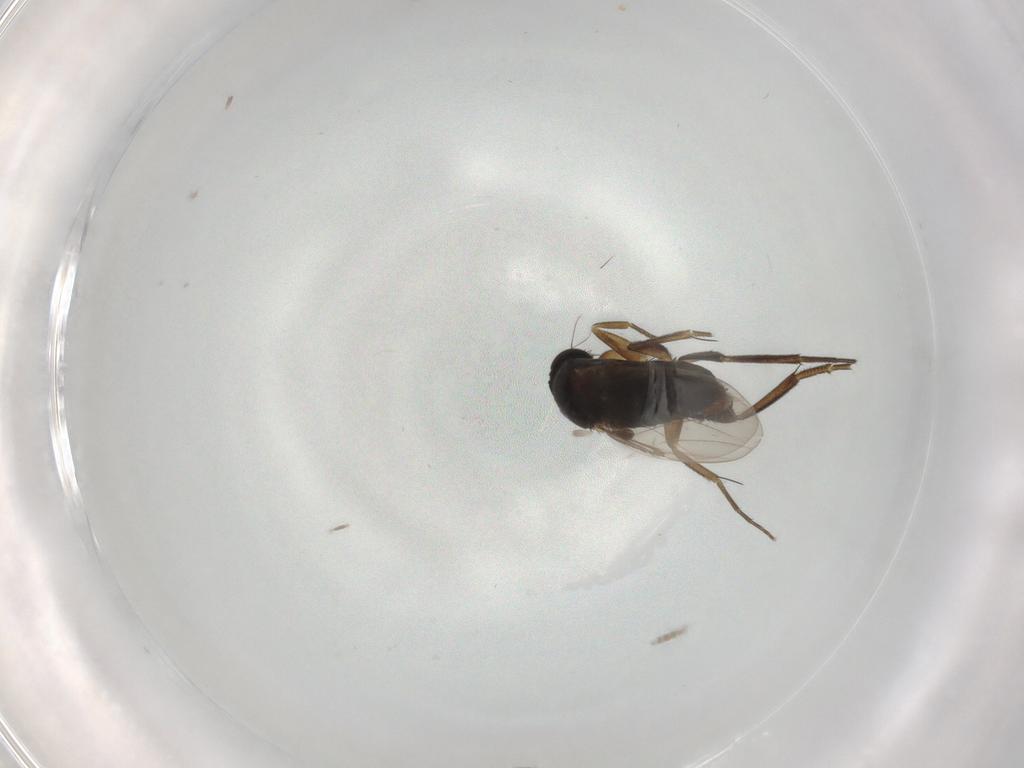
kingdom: Animalia
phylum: Arthropoda
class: Insecta
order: Diptera
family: Phoridae
